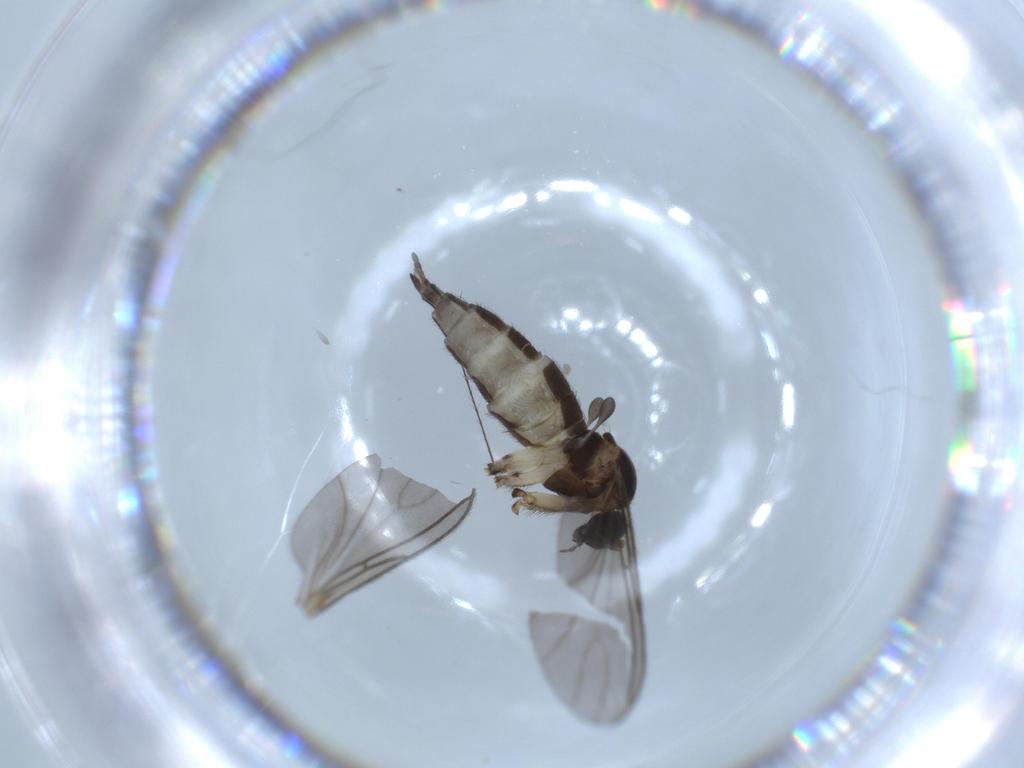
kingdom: Animalia
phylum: Arthropoda
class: Insecta
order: Diptera
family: Sciaridae
